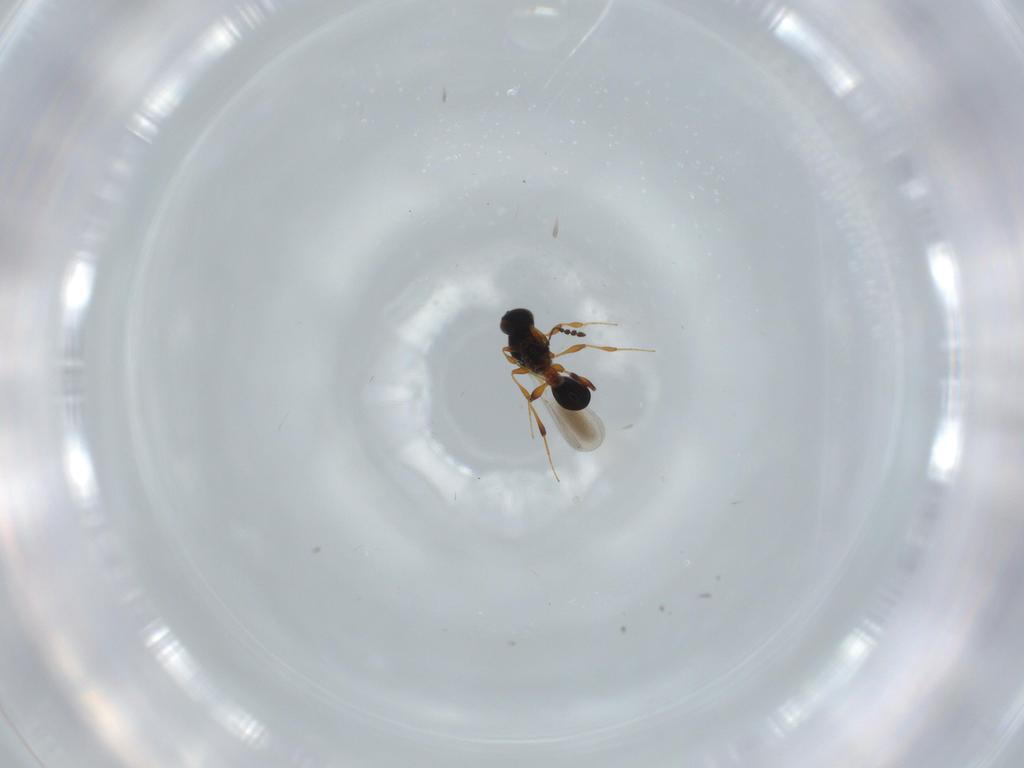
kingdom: Animalia
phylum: Arthropoda
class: Insecta
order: Hymenoptera
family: Platygastridae
